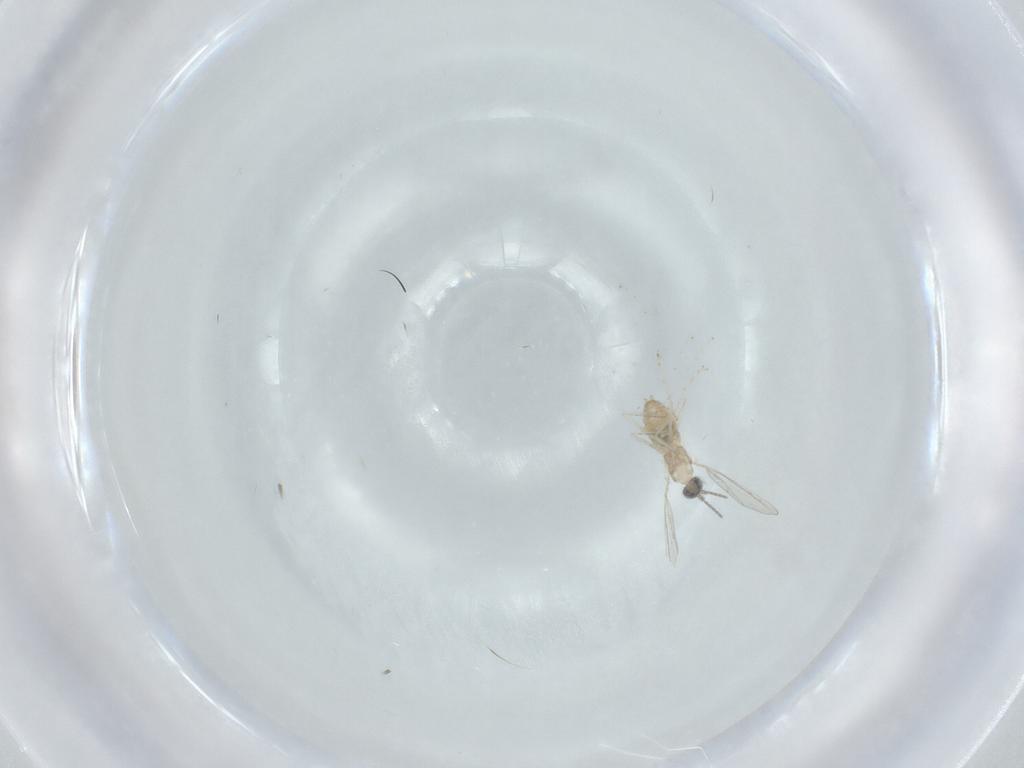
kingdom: Animalia
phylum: Arthropoda
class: Insecta
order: Diptera
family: Cecidomyiidae
